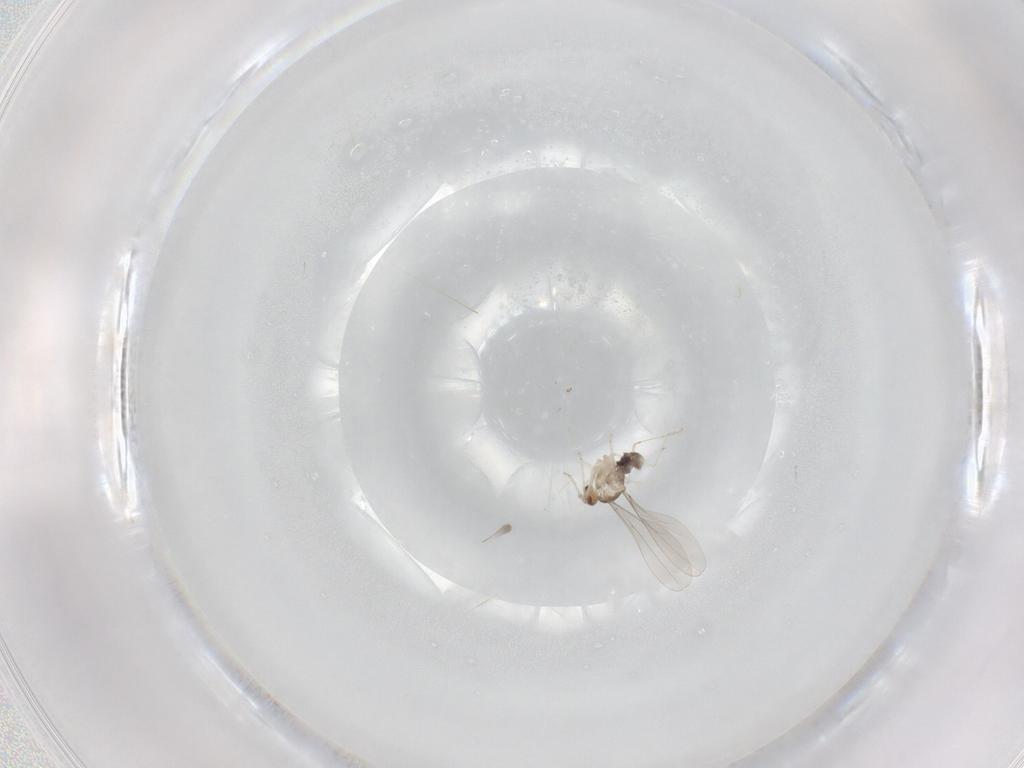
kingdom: Animalia
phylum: Arthropoda
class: Insecta
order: Diptera
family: Cecidomyiidae
